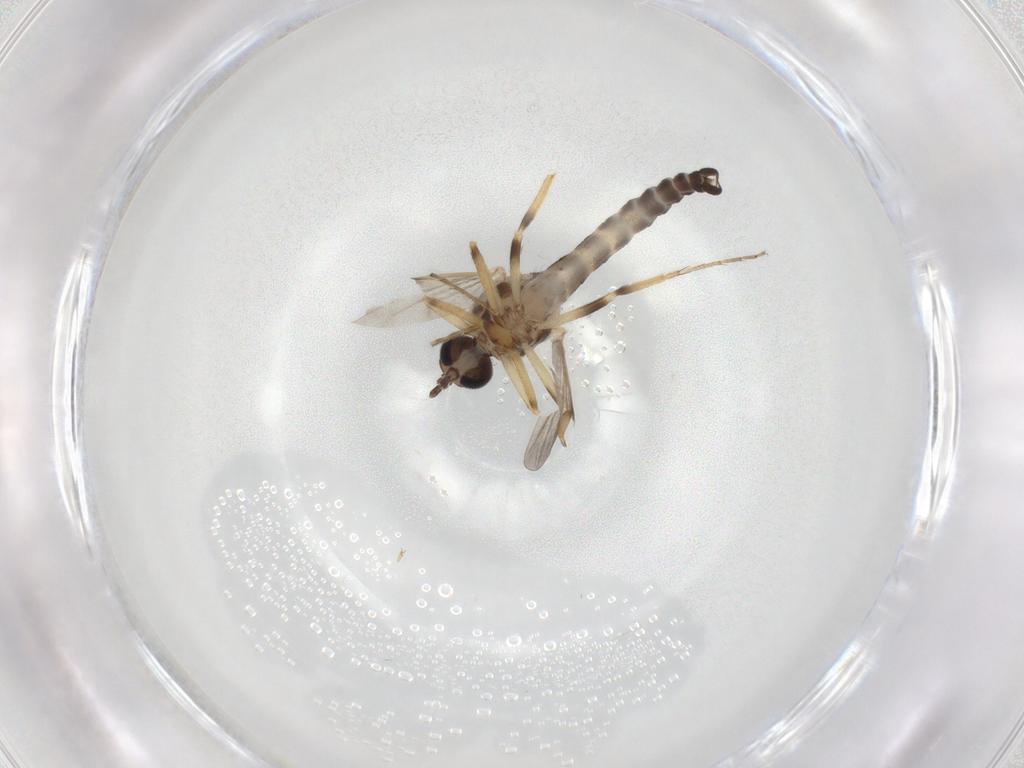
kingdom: Animalia
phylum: Arthropoda
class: Insecta
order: Diptera
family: Ceratopogonidae
